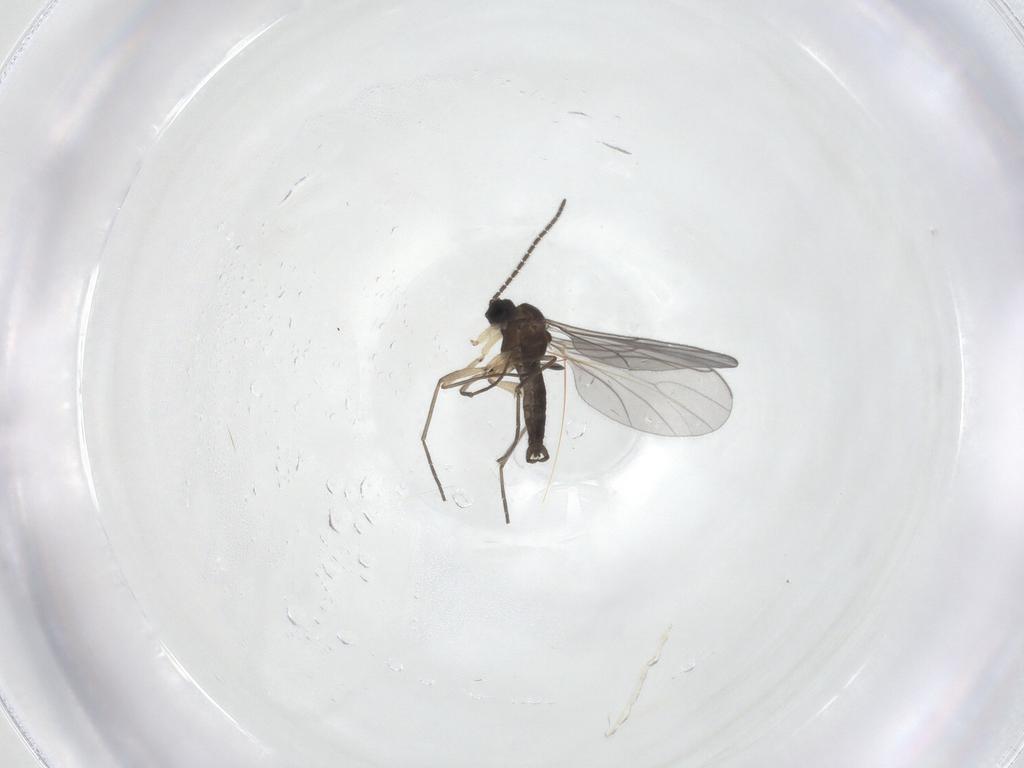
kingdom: Animalia
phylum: Arthropoda
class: Insecta
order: Diptera
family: Sciaridae
